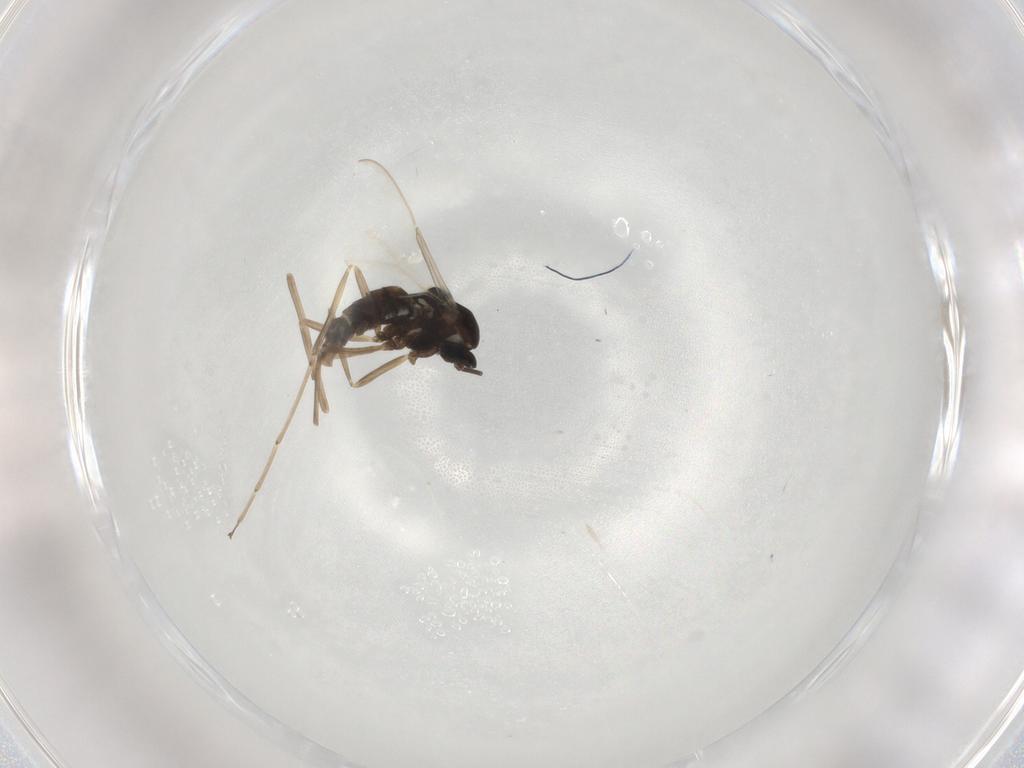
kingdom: Animalia
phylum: Arthropoda
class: Insecta
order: Diptera
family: Cecidomyiidae
